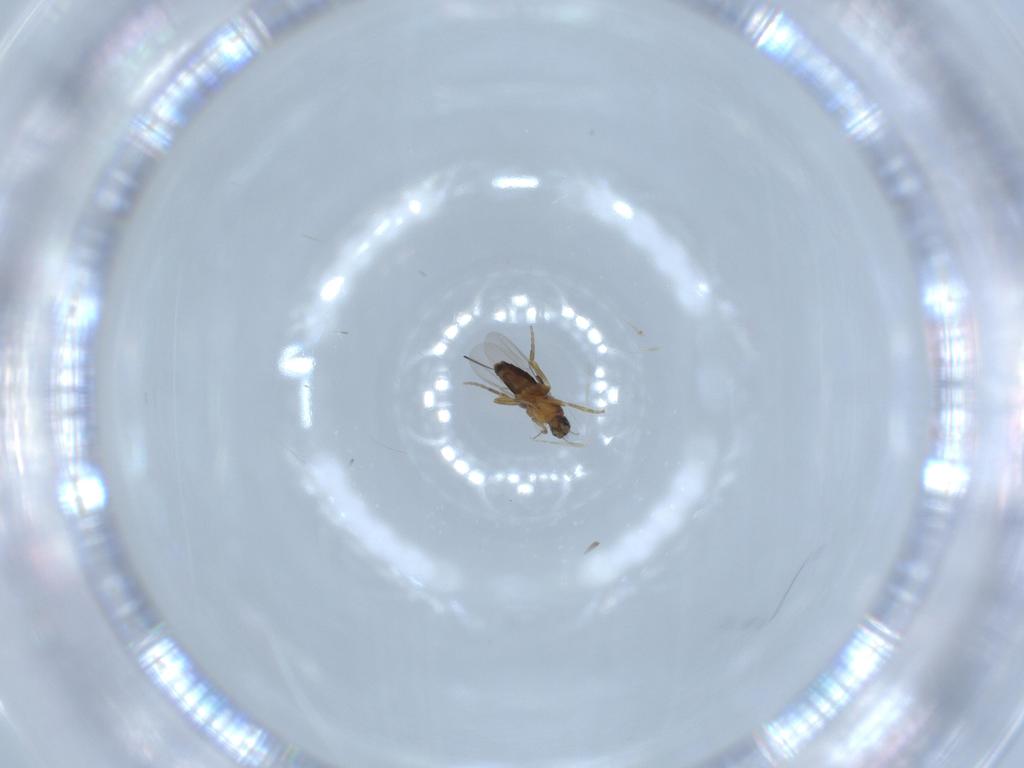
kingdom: Animalia
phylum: Arthropoda
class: Insecta
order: Diptera
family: Cecidomyiidae
